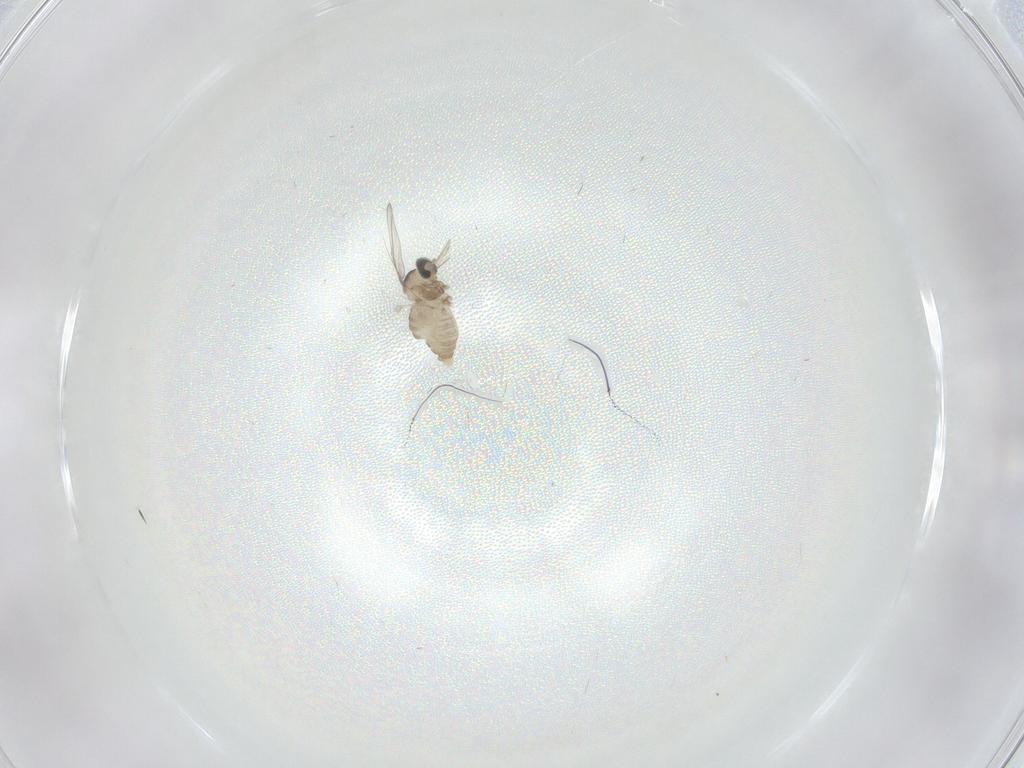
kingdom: Animalia
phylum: Arthropoda
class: Insecta
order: Diptera
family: Cecidomyiidae
